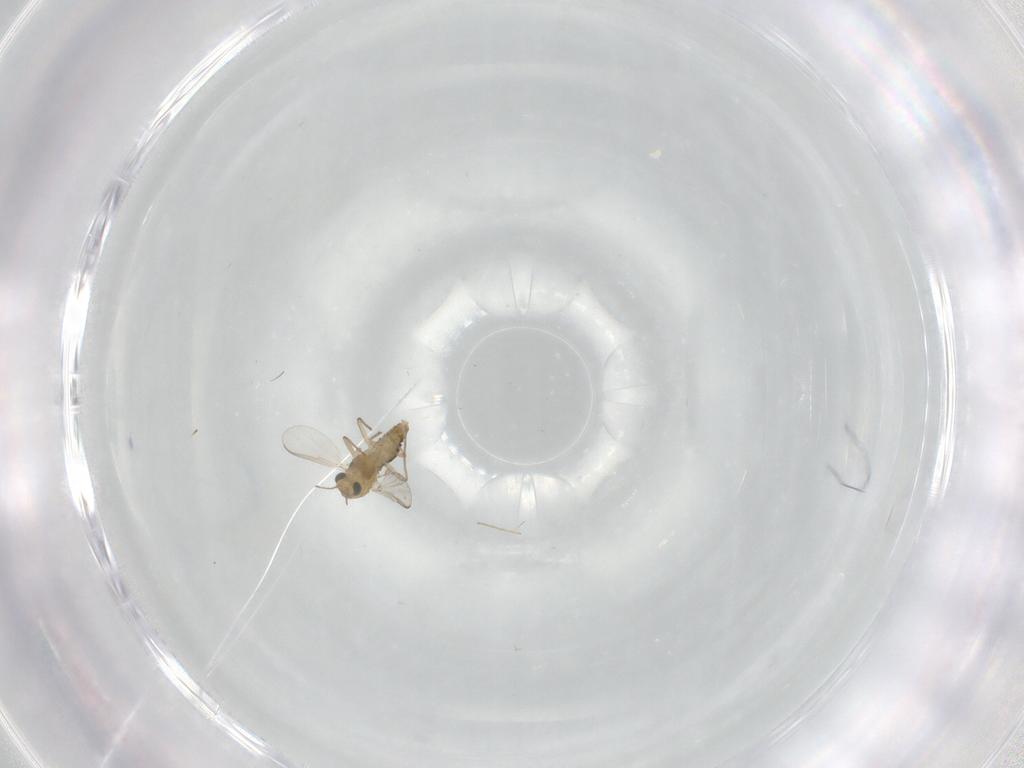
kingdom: Animalia
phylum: Arthropoda
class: Insecta
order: Diptera
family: Chironomidae
